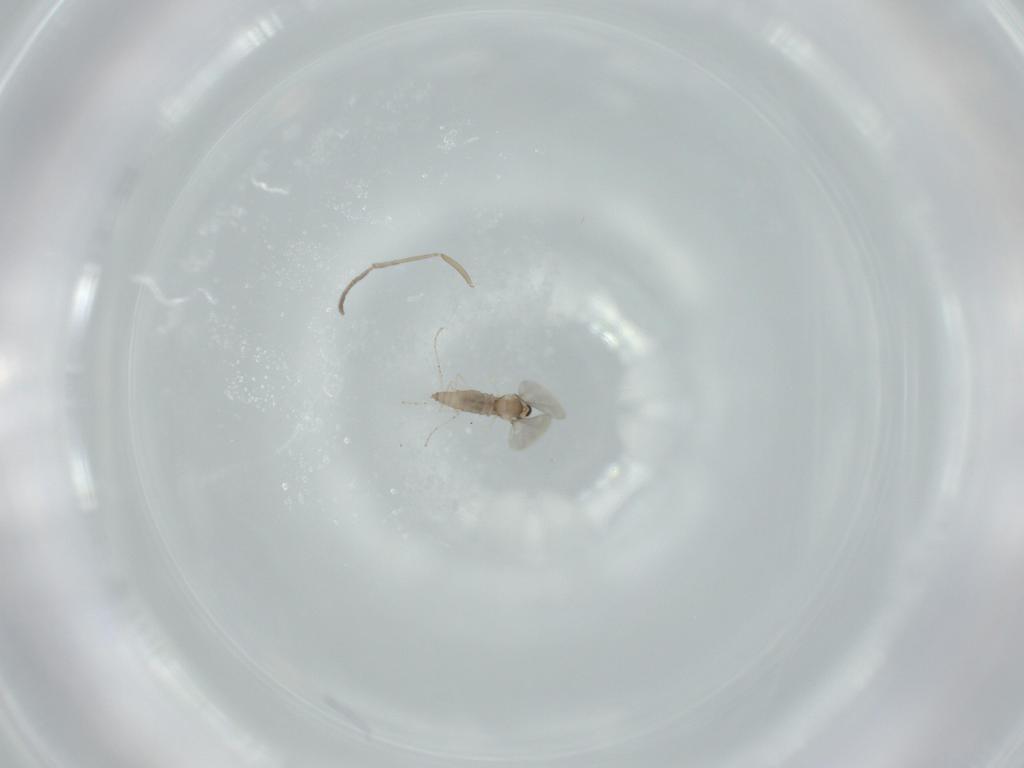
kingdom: Animalia
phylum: Arthropoda
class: Insecta
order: Diptera
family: Cecidomyiidae
